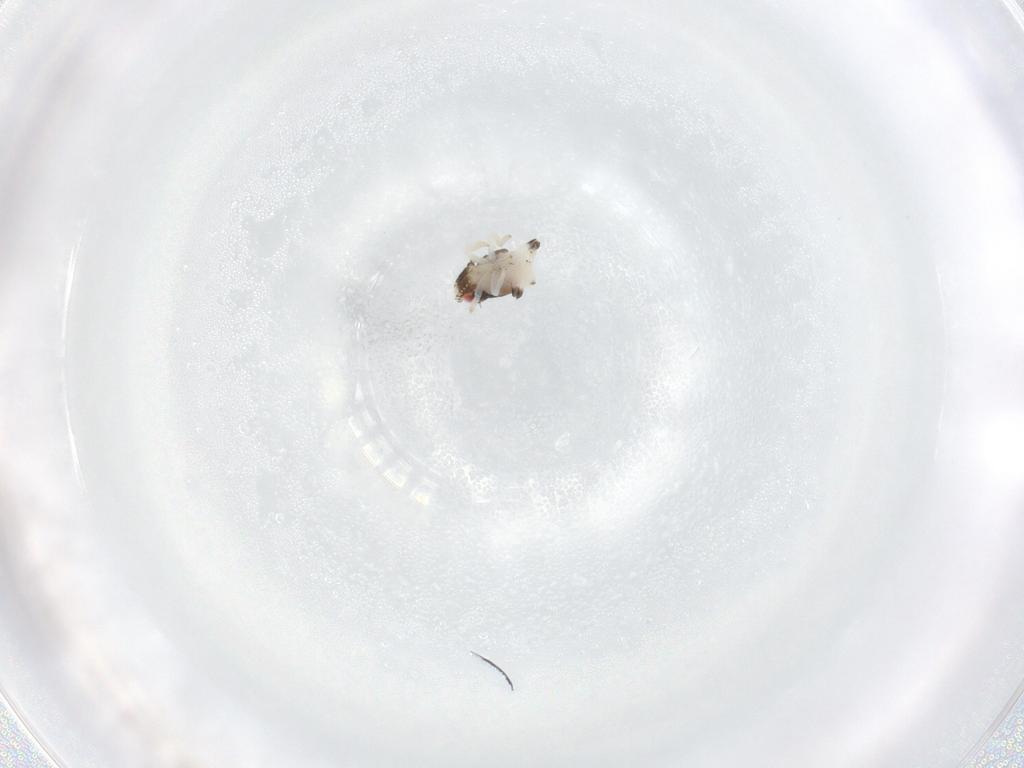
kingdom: Animalia
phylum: Arthropoda
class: Insecta
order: Hemiptera
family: Nogodinidae
